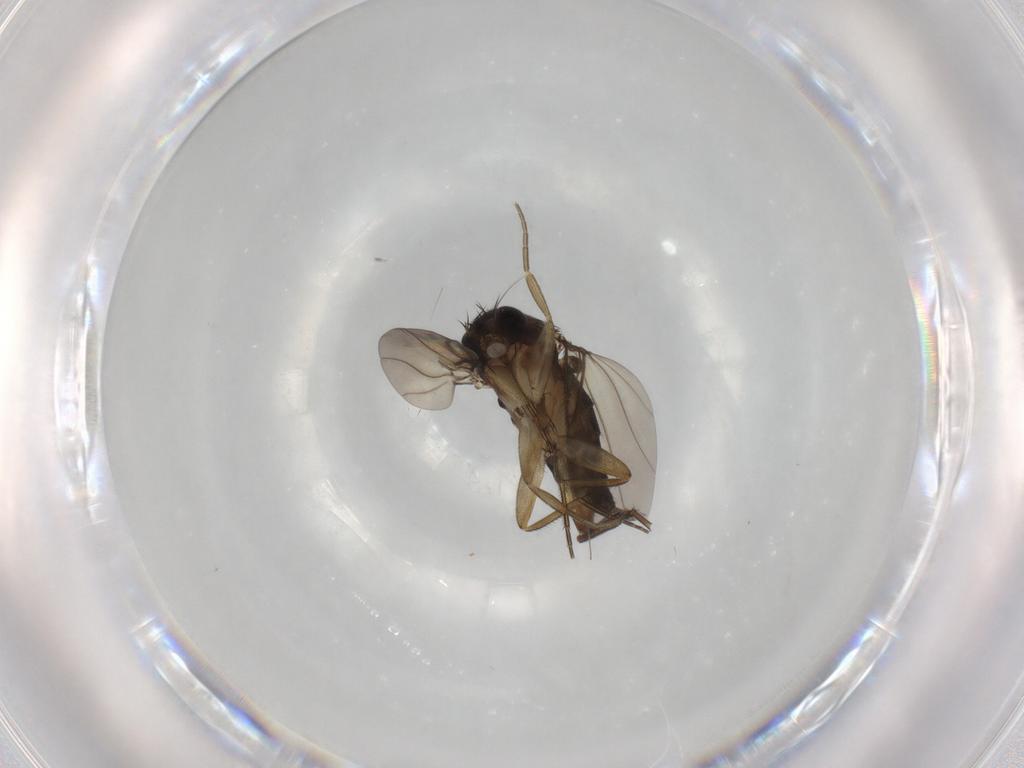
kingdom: Animalia
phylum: Arthropoda
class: Insecta
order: Diptera
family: Phoridae
